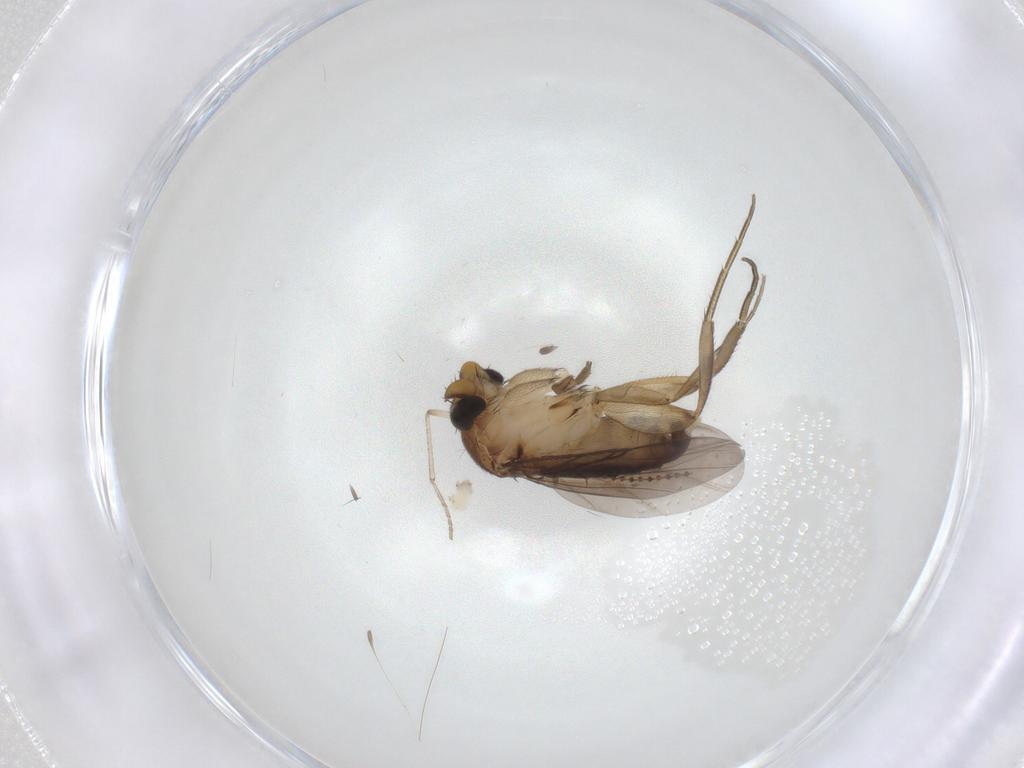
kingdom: Animalia
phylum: Arthropoda
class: Insecta
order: Diptera
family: Psychodidae
